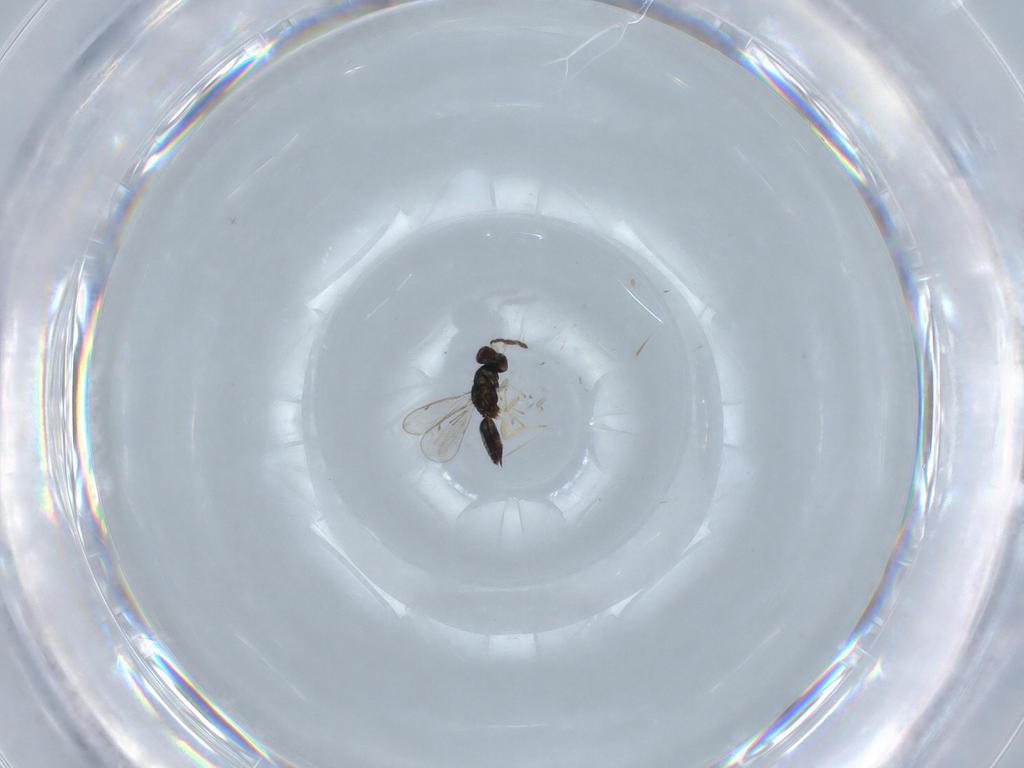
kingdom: Animalia
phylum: Arthropoda
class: Insecta
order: Hymenoptera
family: Eulophidae
